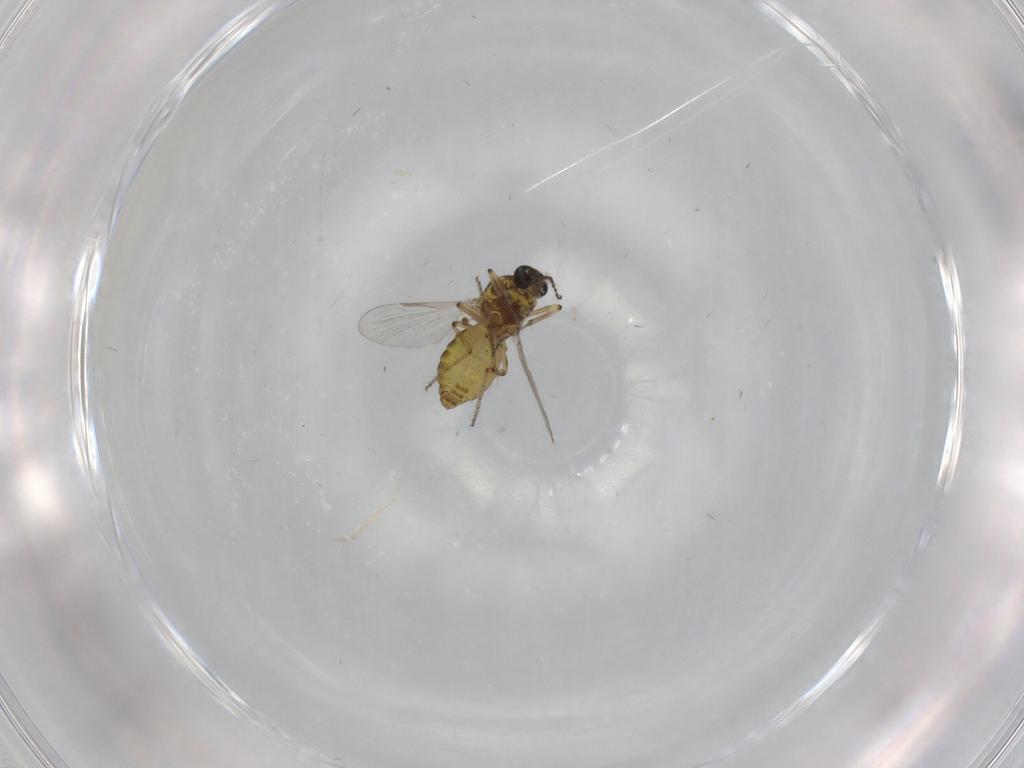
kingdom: Animalia
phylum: Arthropoda
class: Insecta
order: Diptera
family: Ceratopogonidae
